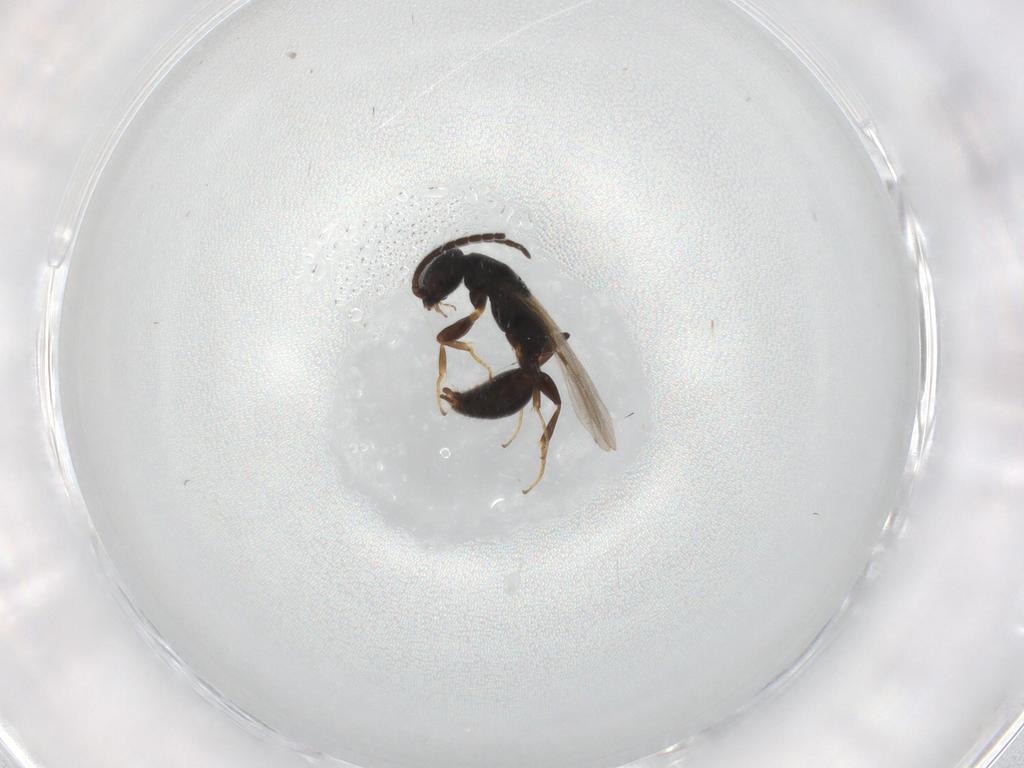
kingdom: Animalia
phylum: Arthropoda
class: Insecta
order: Hymenoptera
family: Bethylidae
